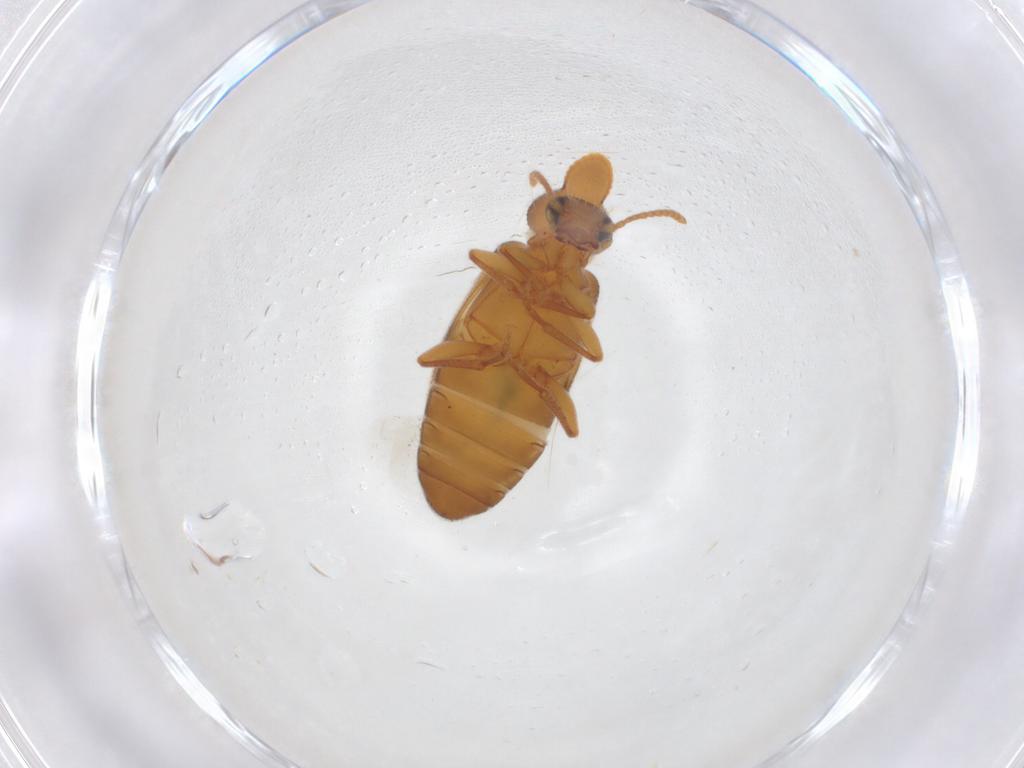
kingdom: Animalia
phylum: Arthropoda
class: Insecta
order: Coleoptera
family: Anthicidae
